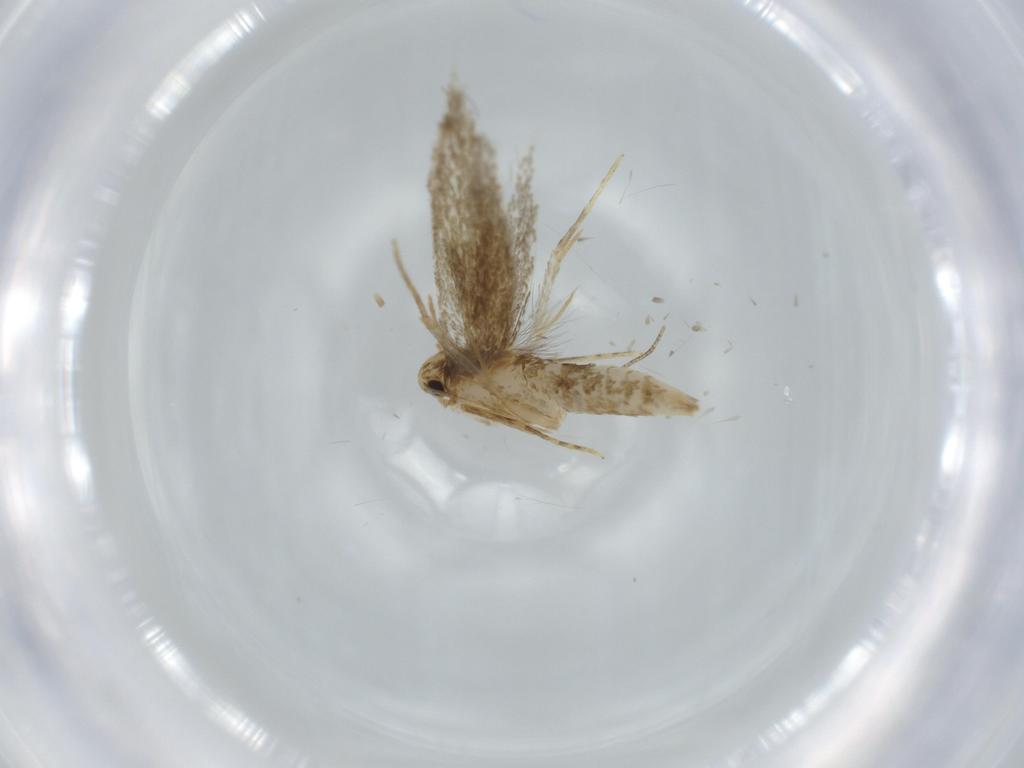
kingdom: Animalia
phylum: Arthropoda
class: Insecta
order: Lepidoptera
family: Tineidae
